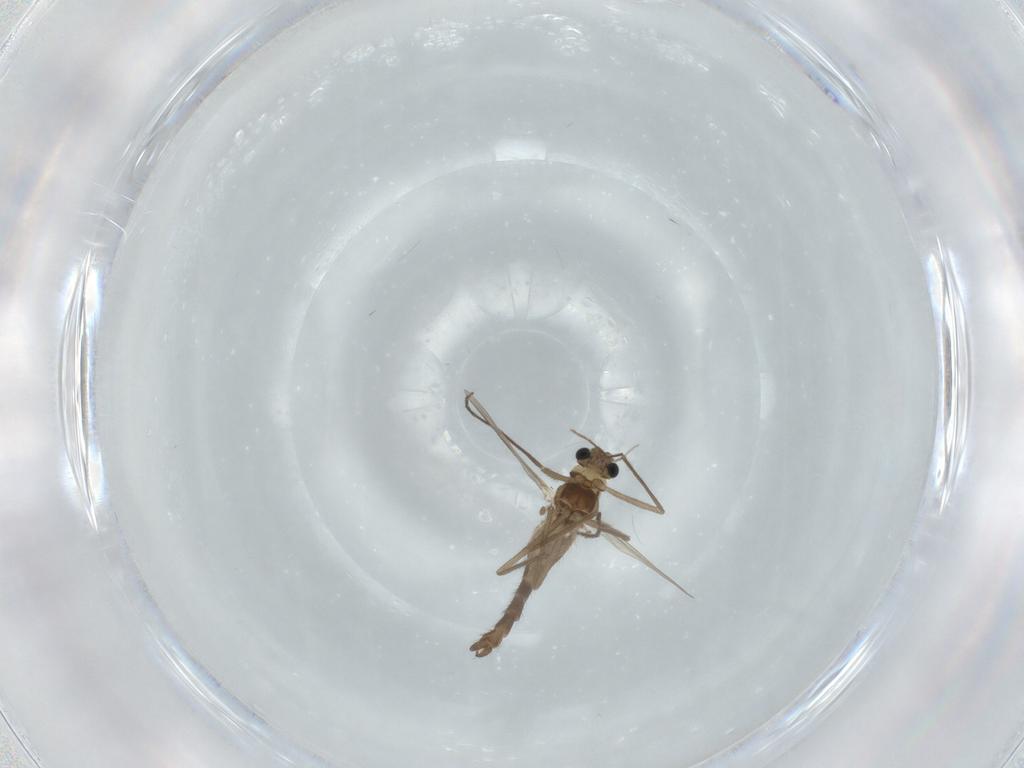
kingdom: Animalia
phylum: Arthropoda
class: Insecta
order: Diptera
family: Chironomidae
